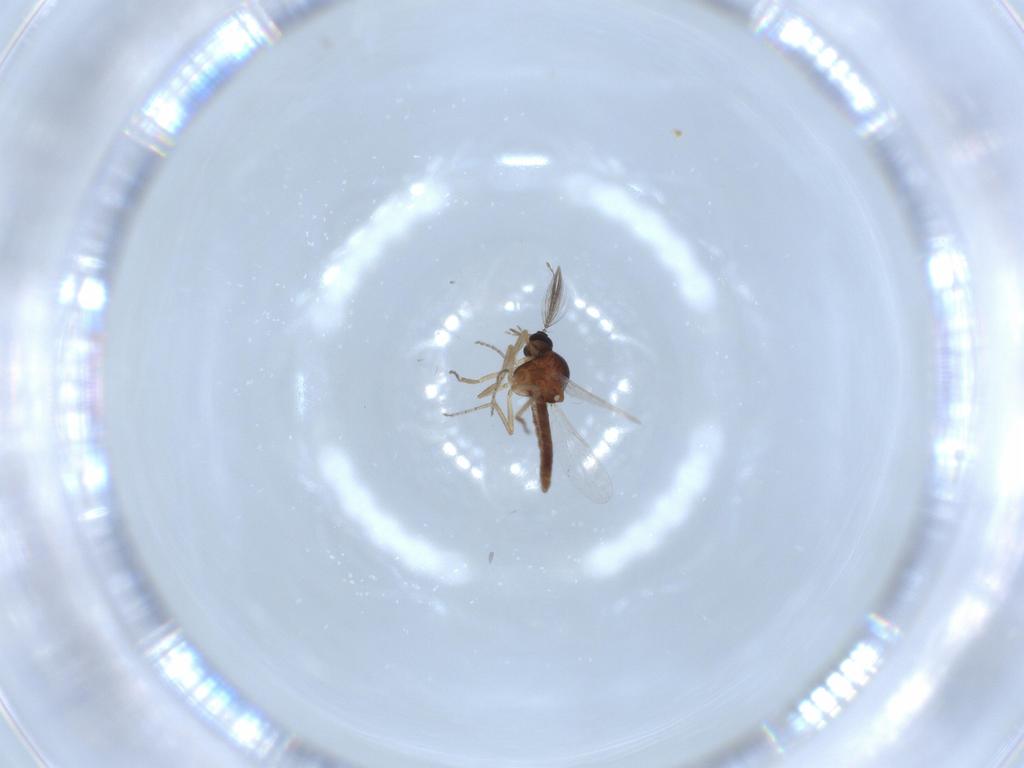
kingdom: Animalia
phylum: Arthropoda
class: Insecta
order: Diptera
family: Ceratopogonidae
